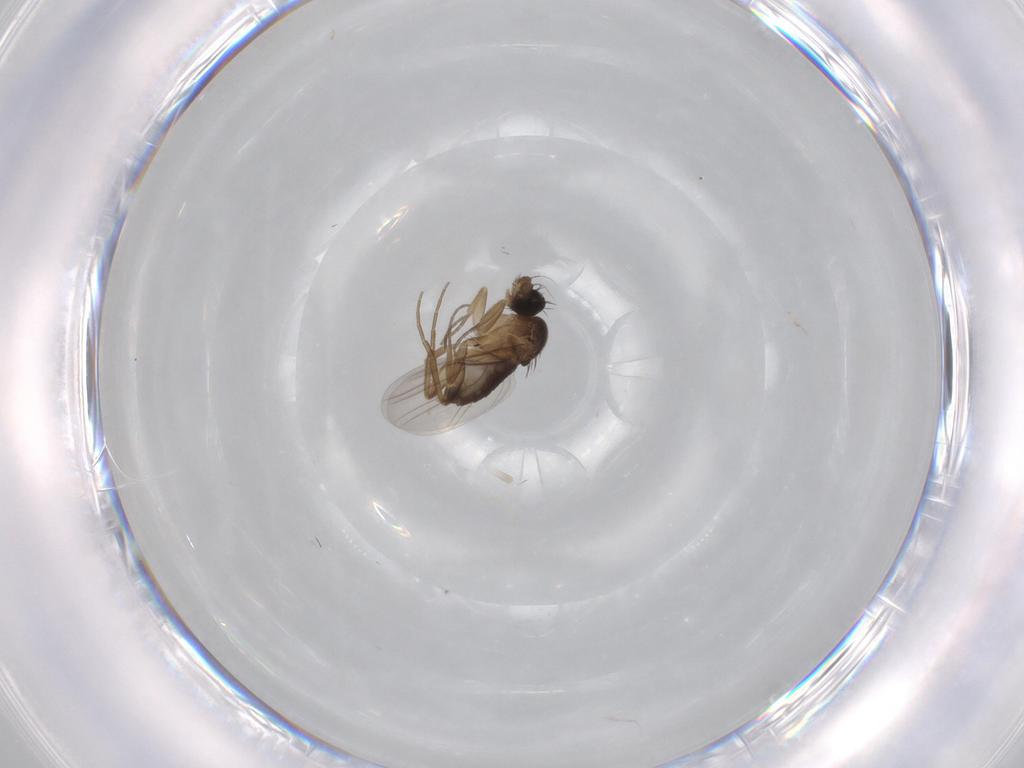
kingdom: Animalia
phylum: Arthropoda
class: Insecta
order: Diptera
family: Phoridae
